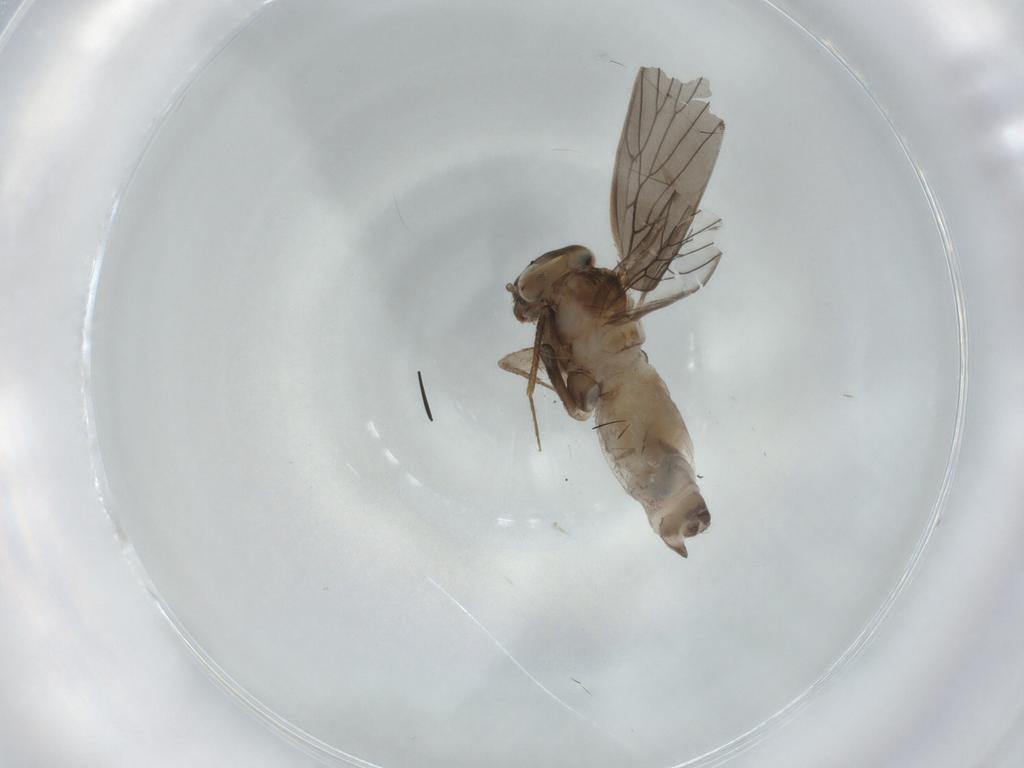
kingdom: Animalia
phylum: Arthropoda
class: Insecta
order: Psocodea
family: Lepidopsocidae
